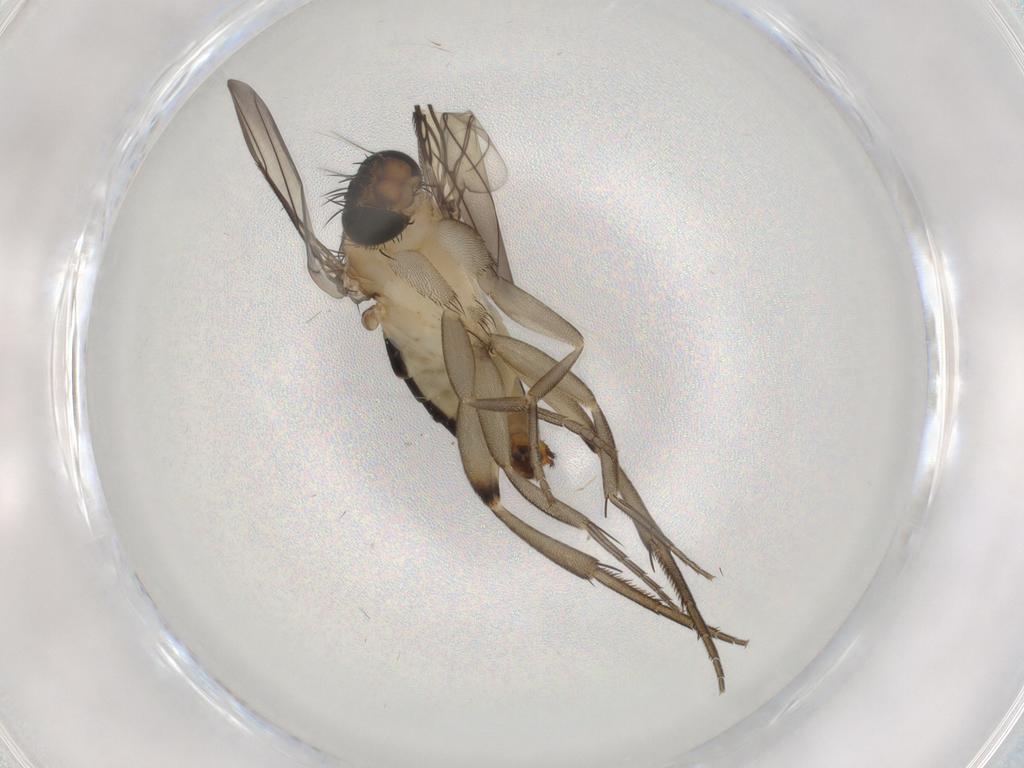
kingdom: Animalia
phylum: Arthropoda
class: Insecta
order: Diptera
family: Phoridae
